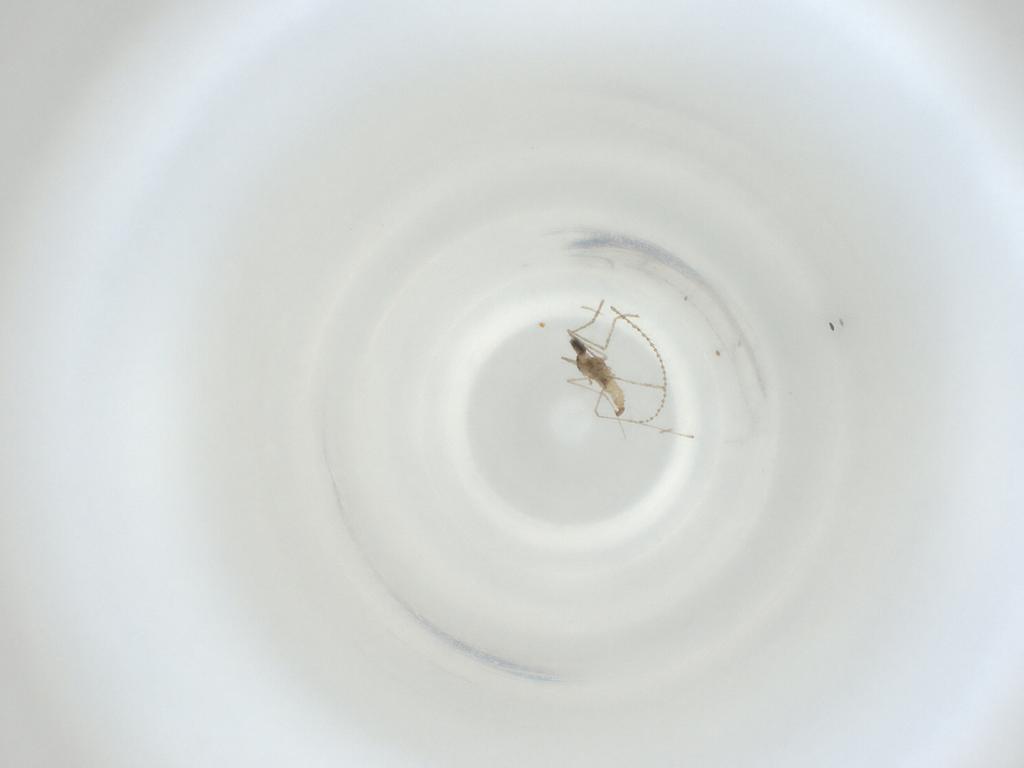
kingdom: Animalia
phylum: Arthropoda
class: Insecta
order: Diptera
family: Cecidomyiidae
